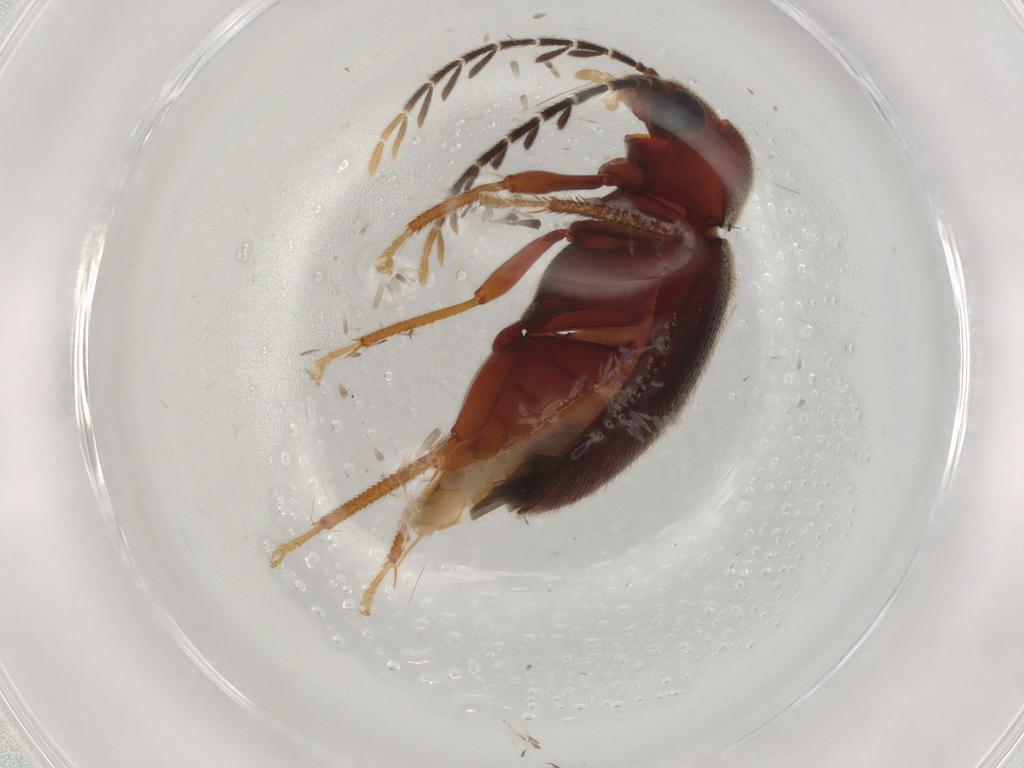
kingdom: Animalia
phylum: Arthropoda
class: Insecta
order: Coleoptera
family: Ptilodactylidae
